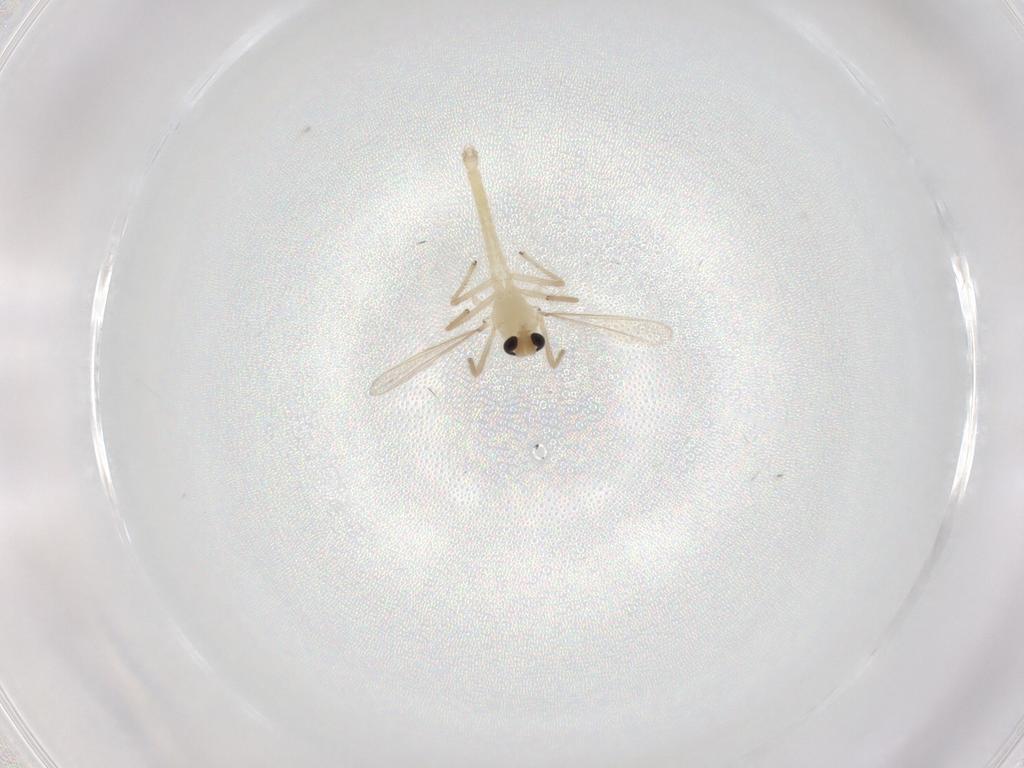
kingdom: Animalia
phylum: Arthropoda
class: Insecta
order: Diptera
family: Chironomidae
